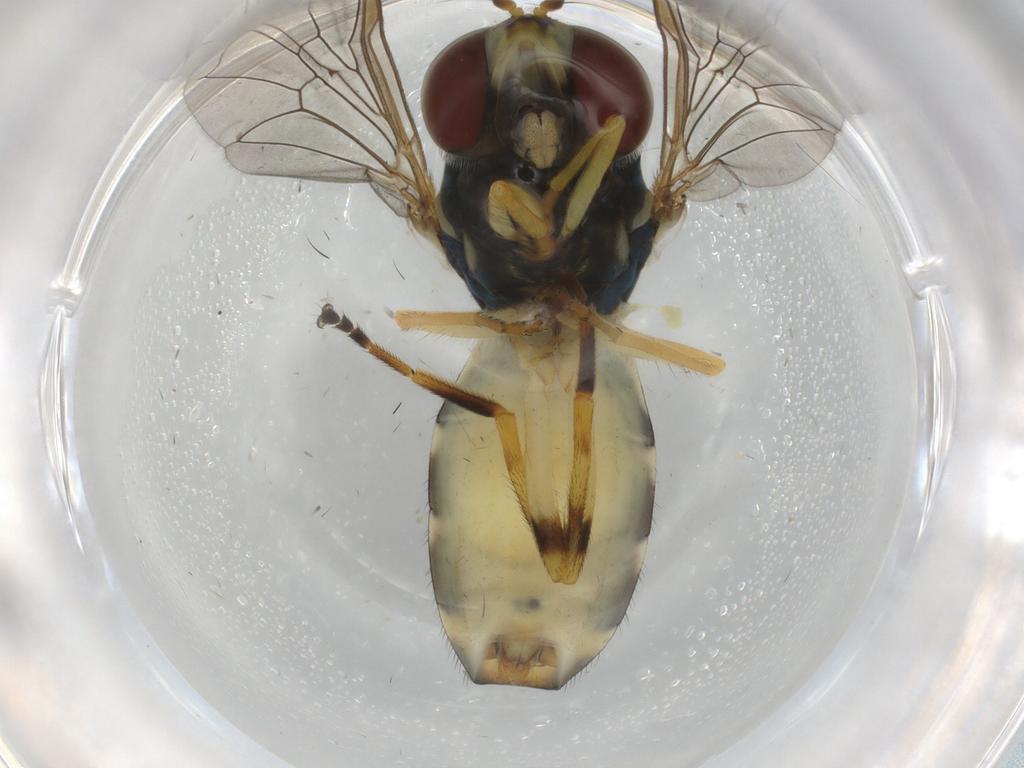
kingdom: Animalia
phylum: Arthropoda
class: Insecta
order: Diptera
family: Syrphidae
